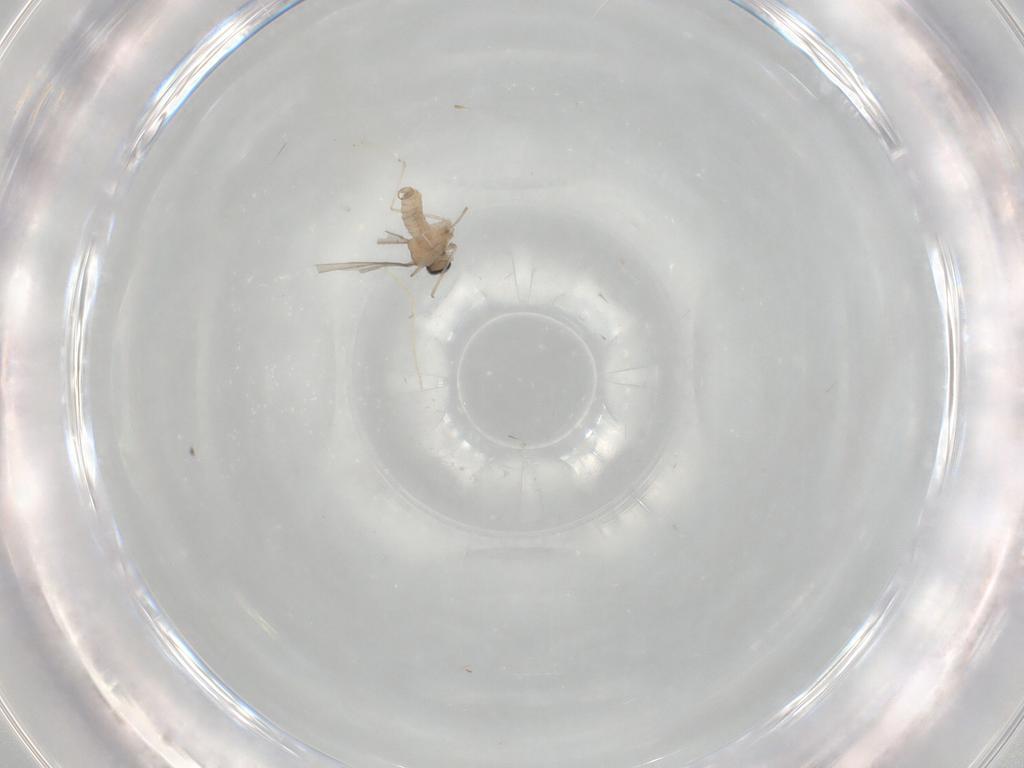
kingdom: Animalia
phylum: Arthropoda
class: Insecta
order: Diptera
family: Cecidomyiidae
